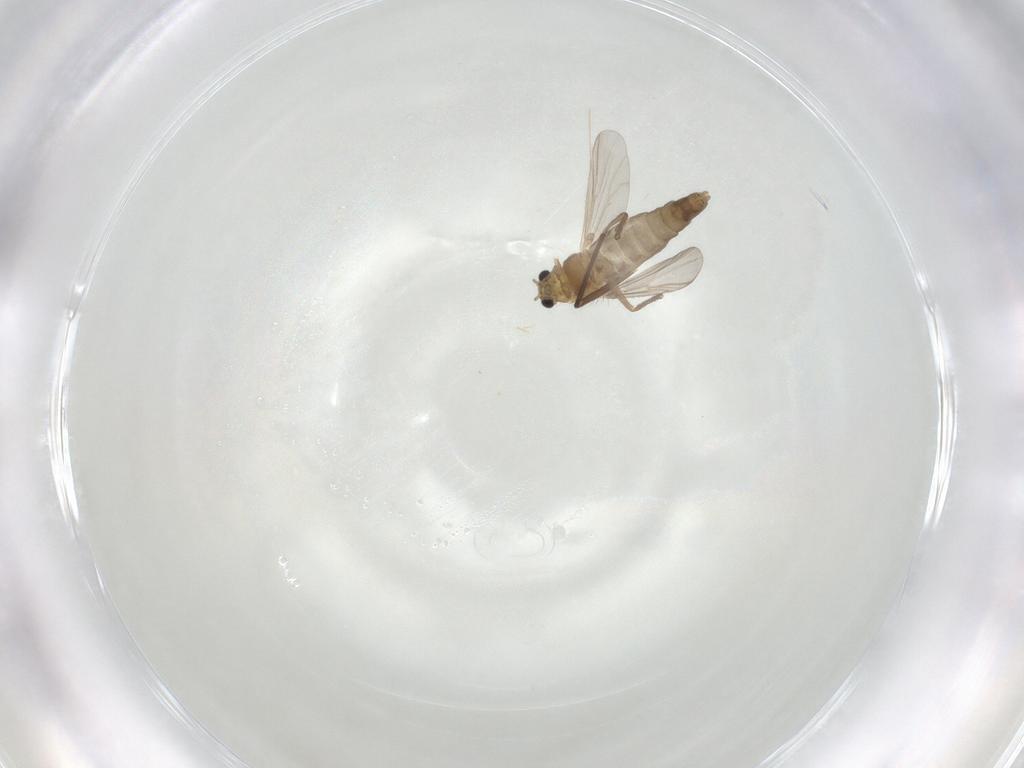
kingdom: Animalia
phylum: Arthropoda
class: Insecta
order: Diptera
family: Chironomidae
